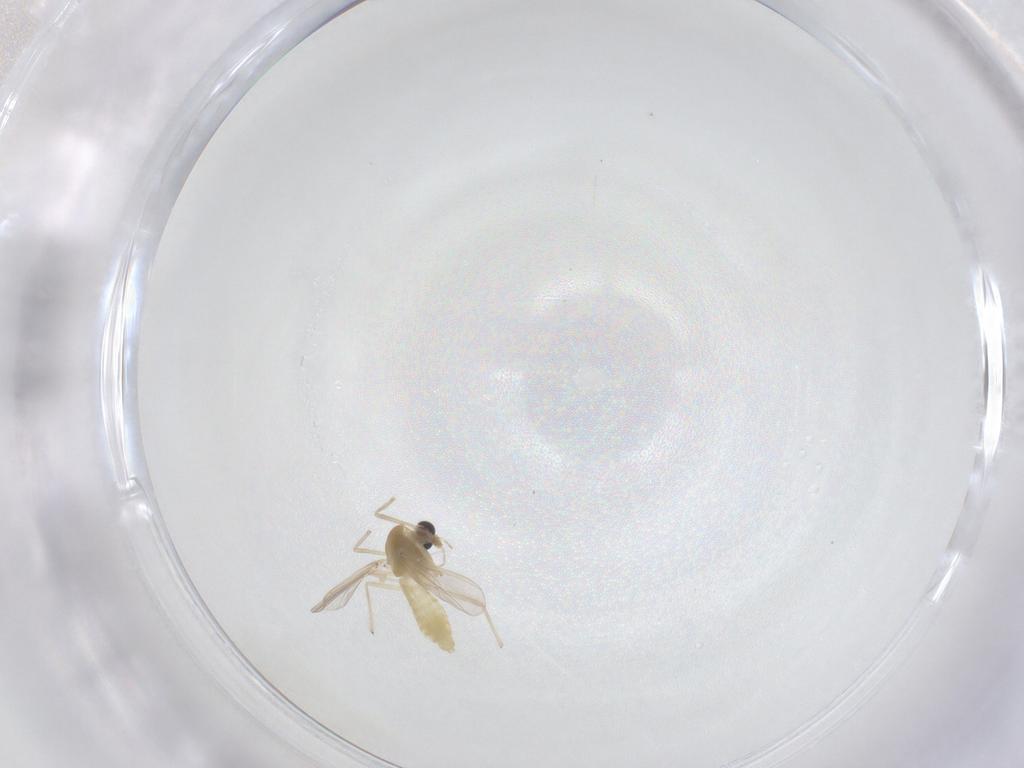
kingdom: Animalia
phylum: Arthropoda
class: Insecta
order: Diptera
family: Chironomidae
